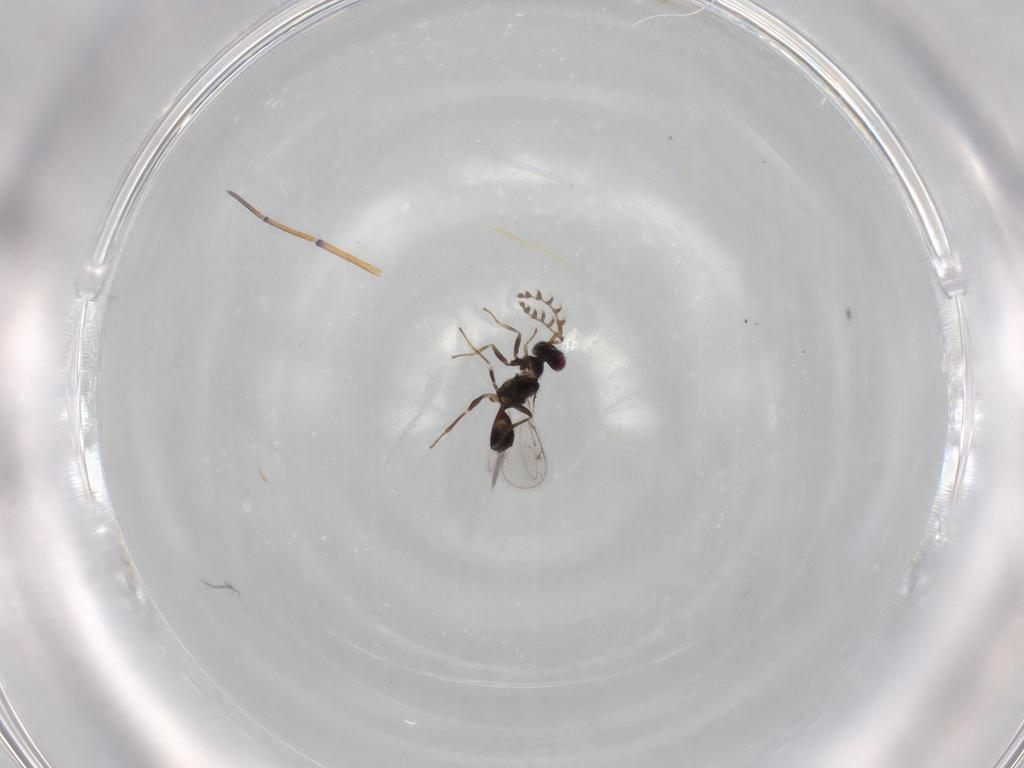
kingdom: Animalia
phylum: Arthropoda
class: Insecta
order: Hymenoptera
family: Eulophidae
